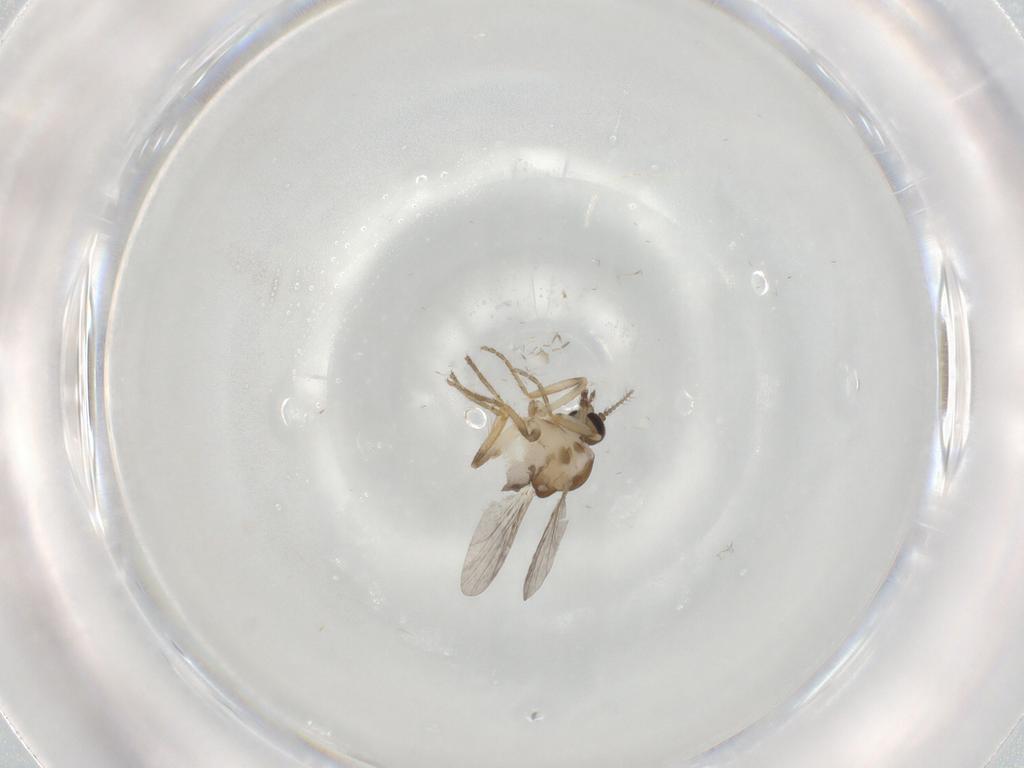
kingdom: Animalia
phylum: Arthropoda
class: Insecta
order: Diptera
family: Ceratopogonidae
